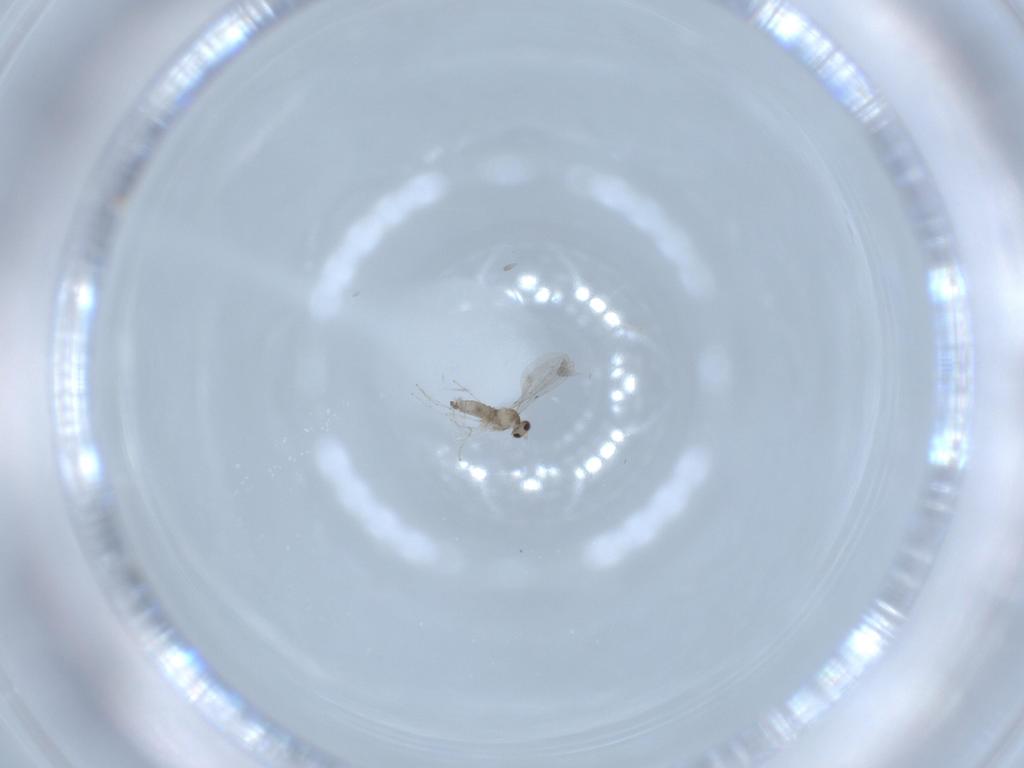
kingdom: Animalia
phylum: Arthropoda
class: Insecta
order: Diptera
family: Cecidomyiidae
